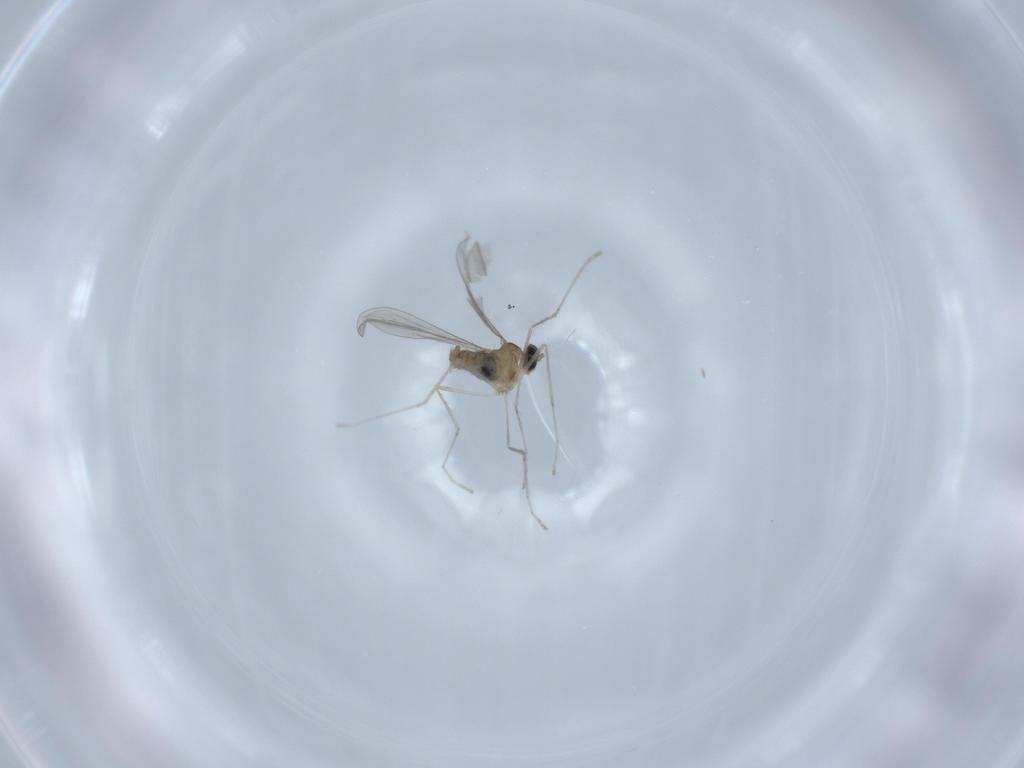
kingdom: Animalia
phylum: Arthropoda
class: Insecta
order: Diptera
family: Cecidomyiidae
